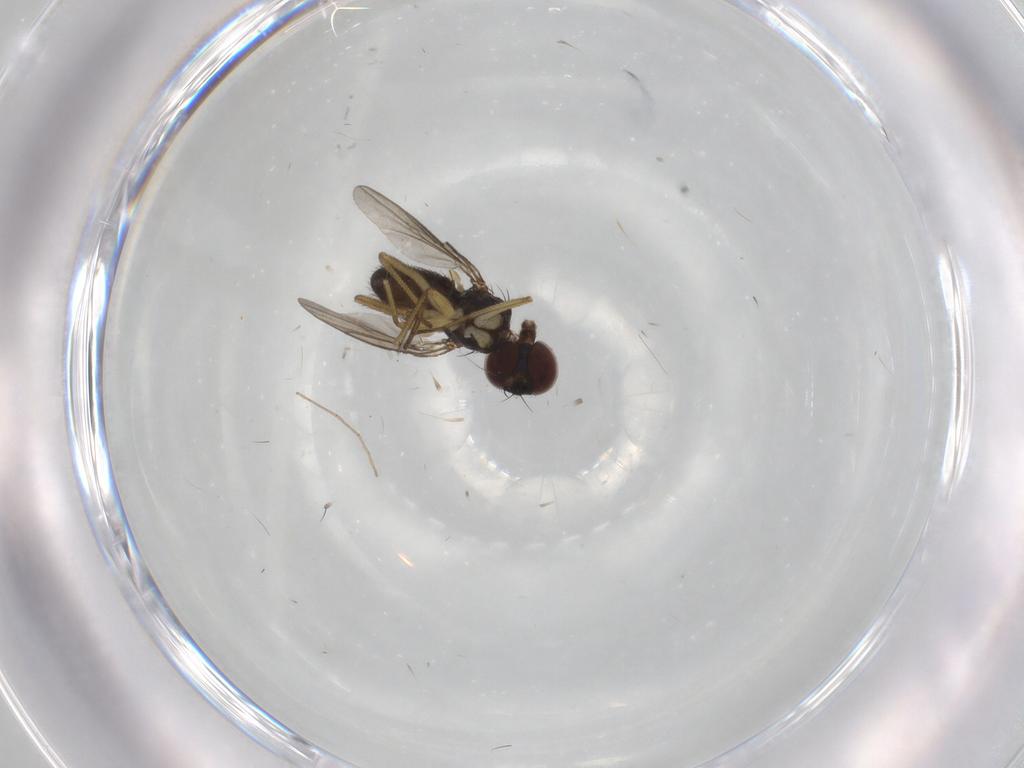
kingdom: Animalia
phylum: Arthropoda
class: Insecta
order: Diptera
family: Dolichopodidae
